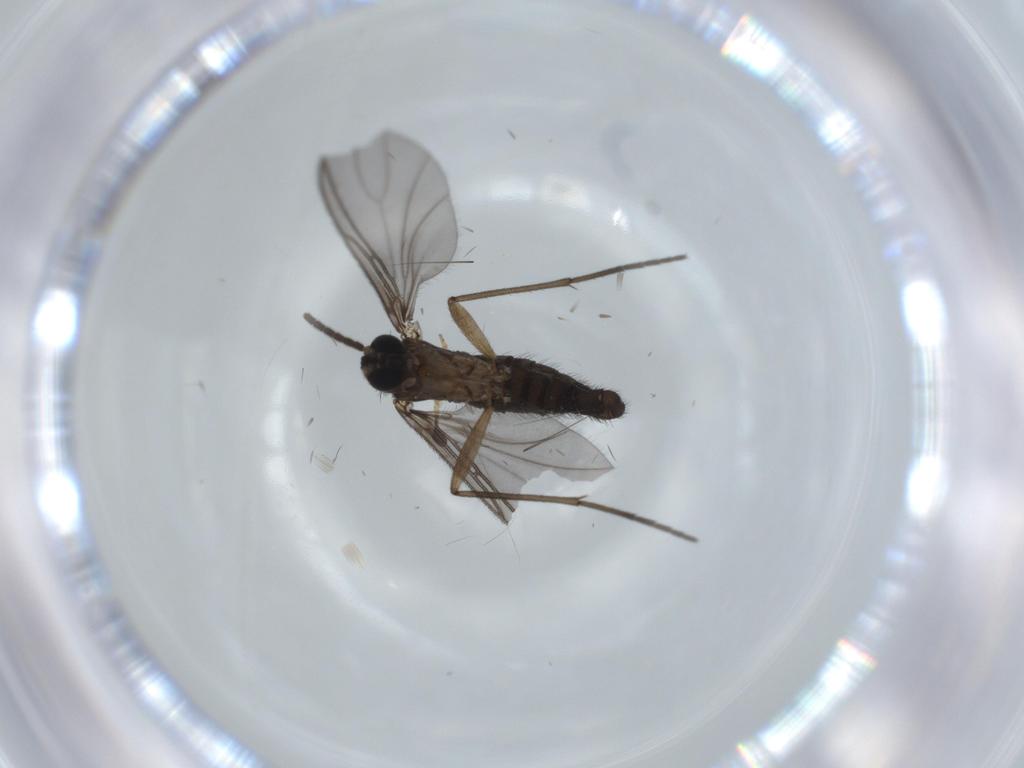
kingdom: Animalia
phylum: Arthropoda
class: Insecta
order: Diptera
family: Sciaridae
